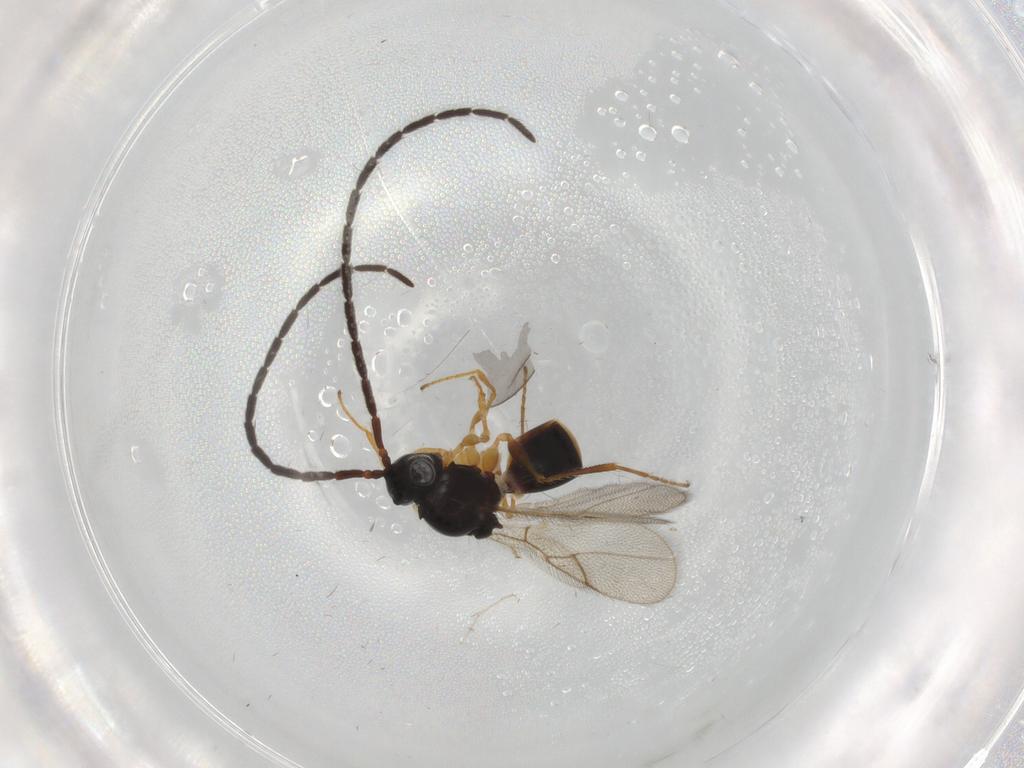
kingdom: Animalia
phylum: Arthropoda
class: Insecta
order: Hymenoptera
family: Figitidae
